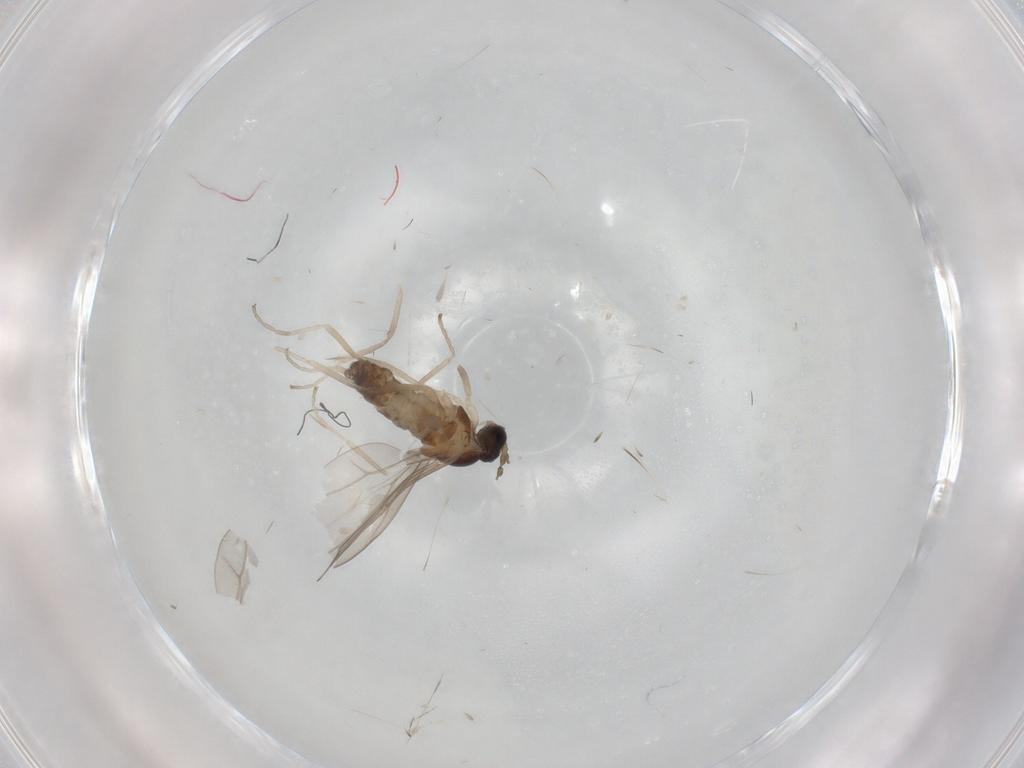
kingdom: Animalia
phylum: Arthropoda
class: Insecta
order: Diptera
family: Cecidomyiidae
